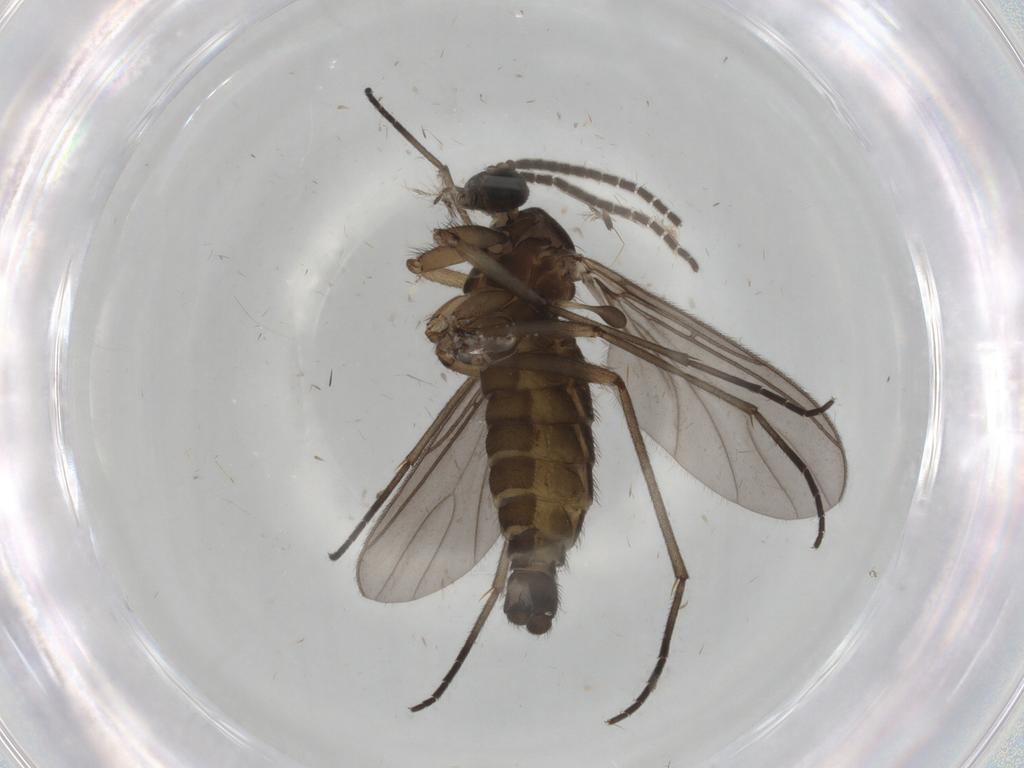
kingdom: Animalia
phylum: Arthropoda
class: Insecta
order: Diptera
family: Sciaridae
